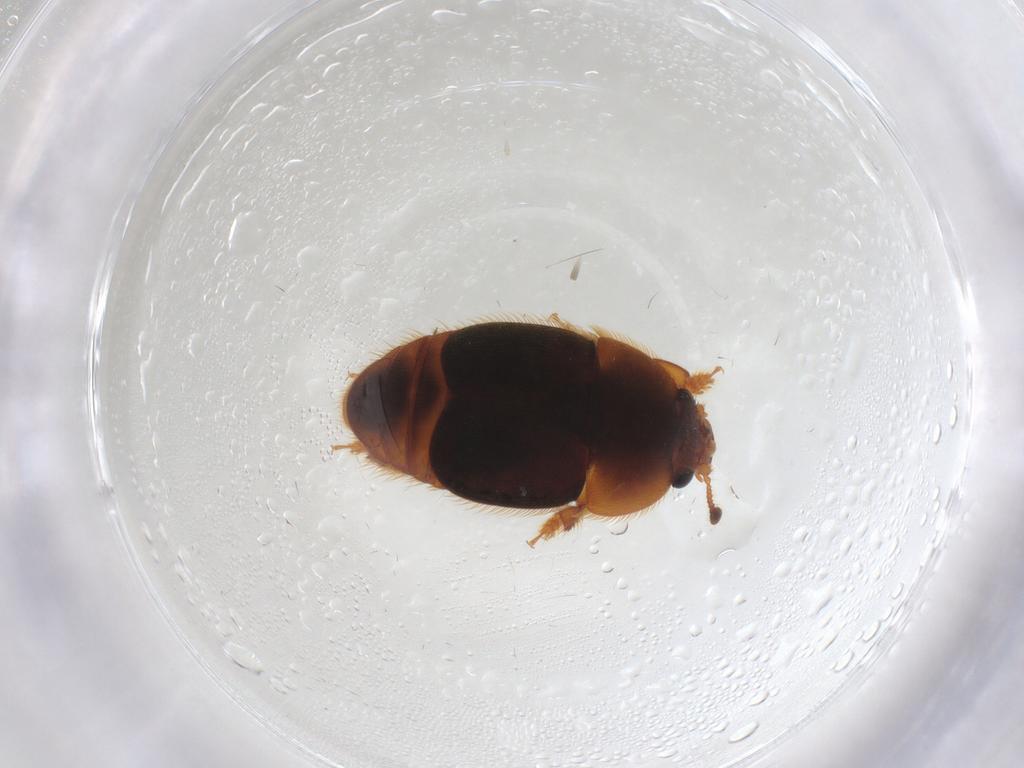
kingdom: Animalia
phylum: Arthropoda
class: Insecta
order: Coleoptera
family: Nitidulidae
